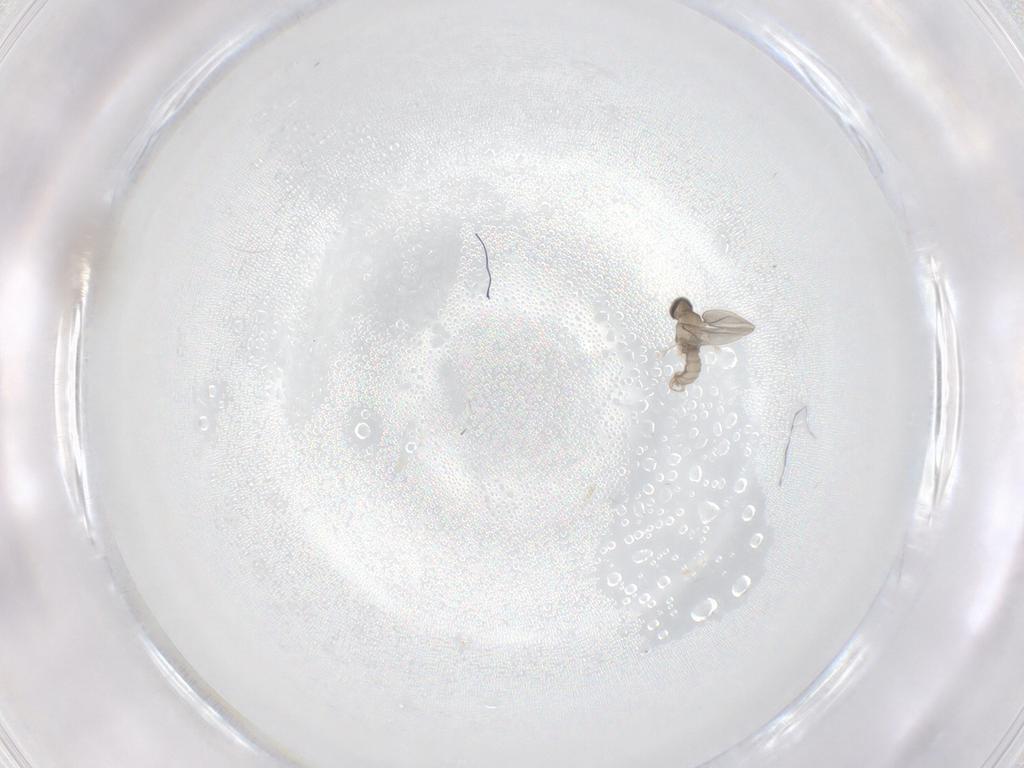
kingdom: Animalia
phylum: Arthropoda
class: Insecta
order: Diptera
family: Cecidomyiidae
